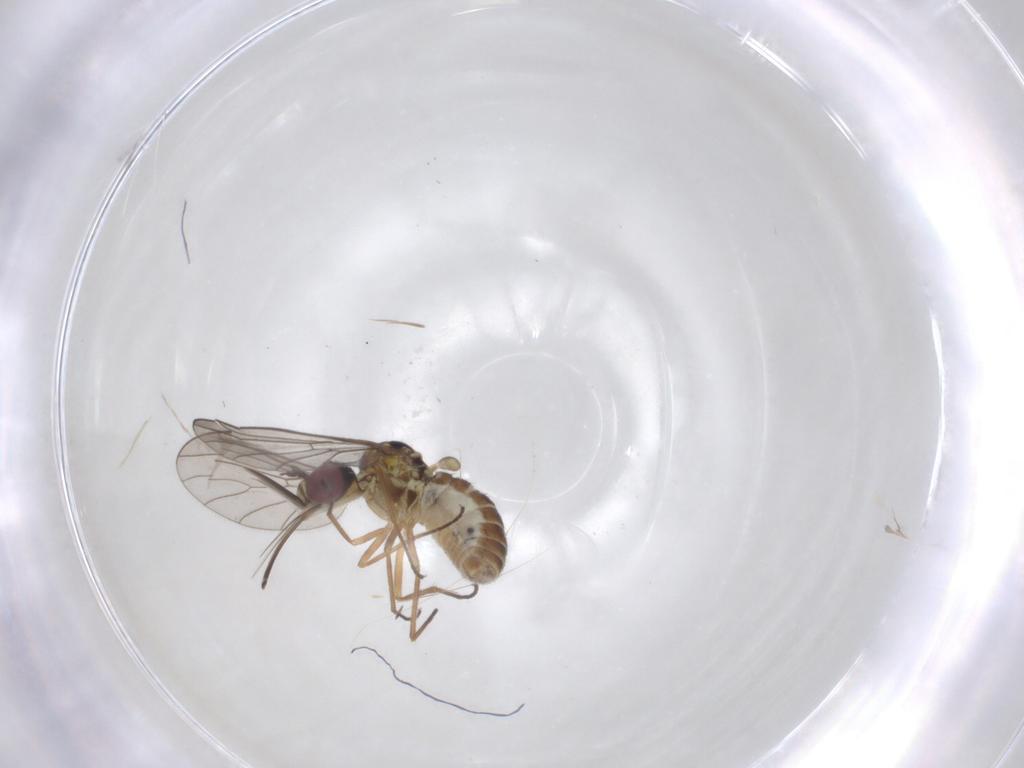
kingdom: Animalia
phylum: Arthropoda
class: Insecta
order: Diptera
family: Bombyliidae
